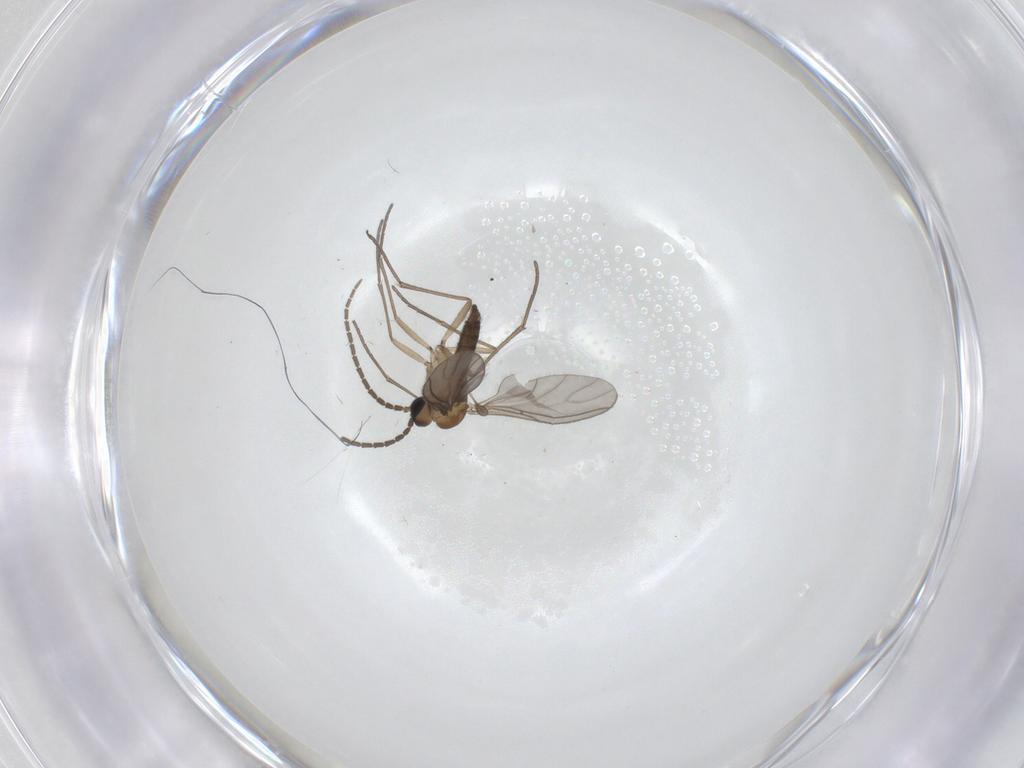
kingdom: Animalia
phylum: Arthropoda
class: Insecta
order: Diptera
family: Sciaridae
